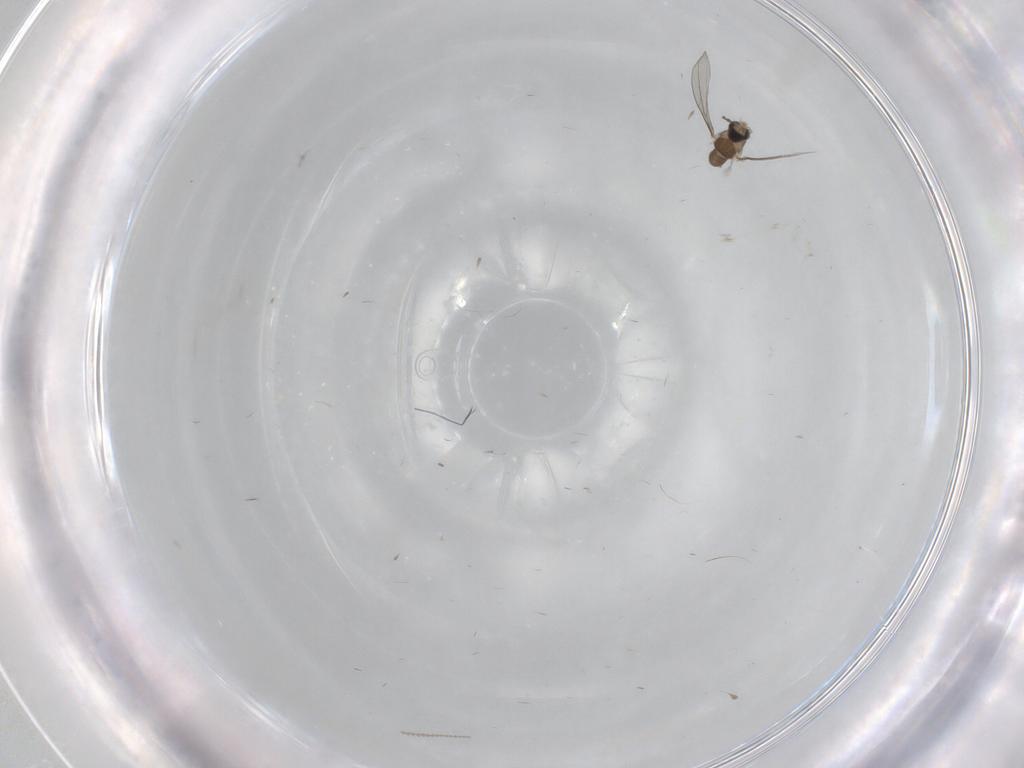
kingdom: Animalia
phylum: Arthropoda
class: Insecta
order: Diptera
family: Cecidomyiidae
